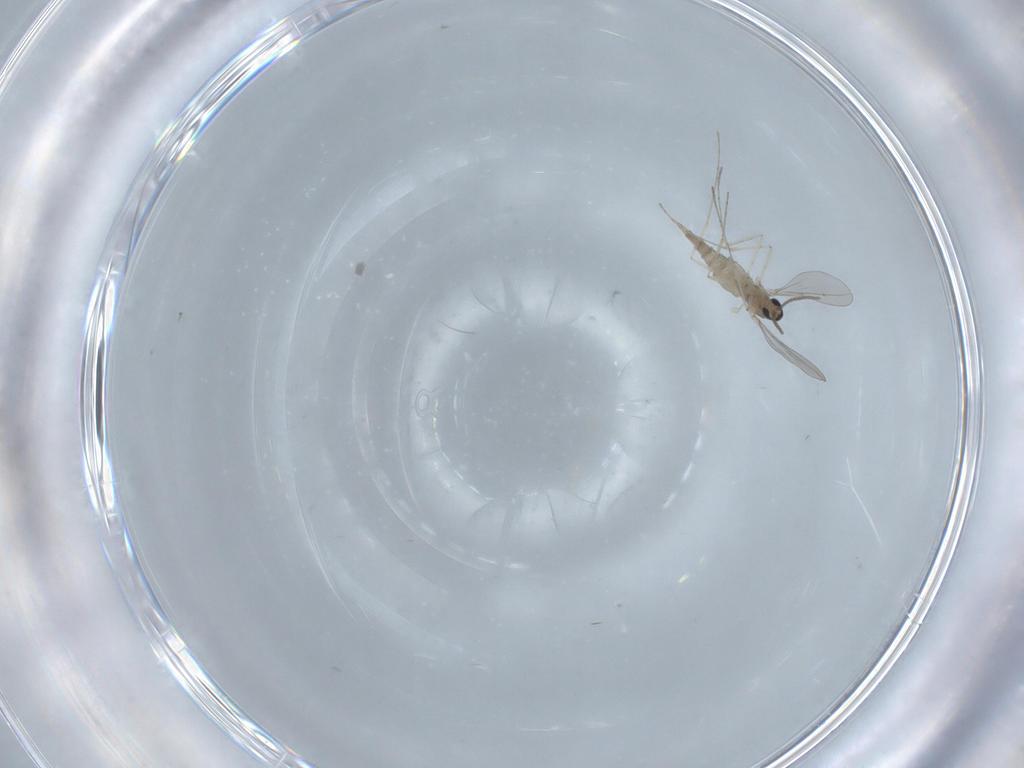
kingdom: Animalia
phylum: Arthropoda
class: Insecta
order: Diptera
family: Cecidomyiidae
